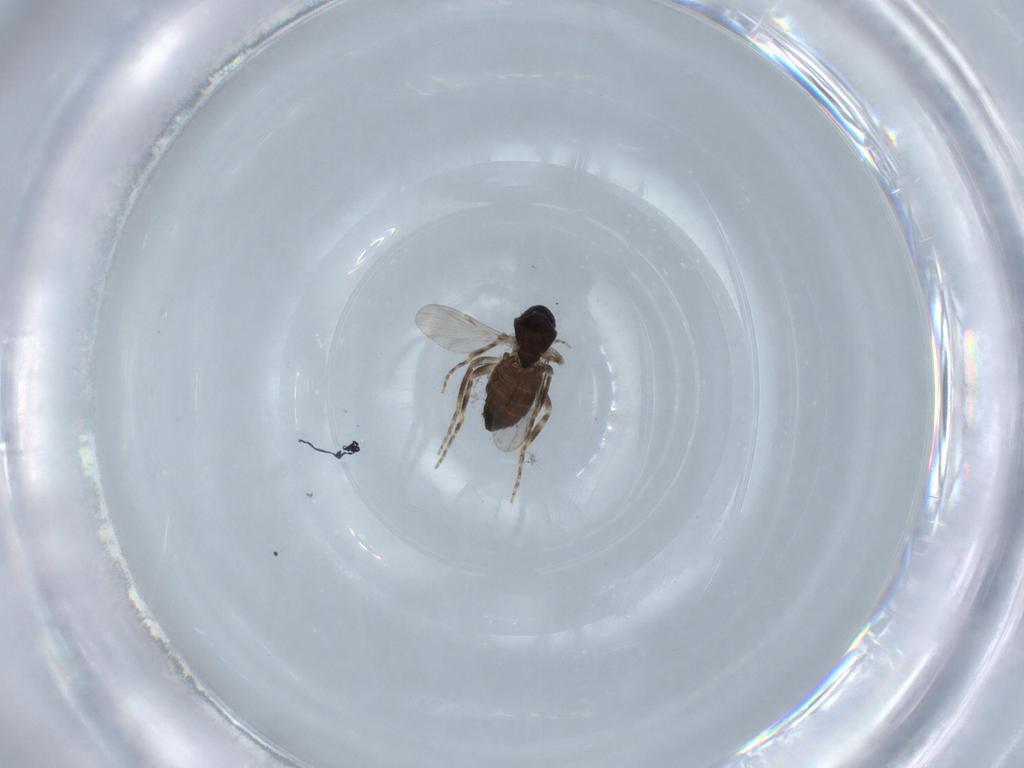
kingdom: Animalia
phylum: Arthropoda
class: Insecta
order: Diptera
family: Ceratopogonidae
